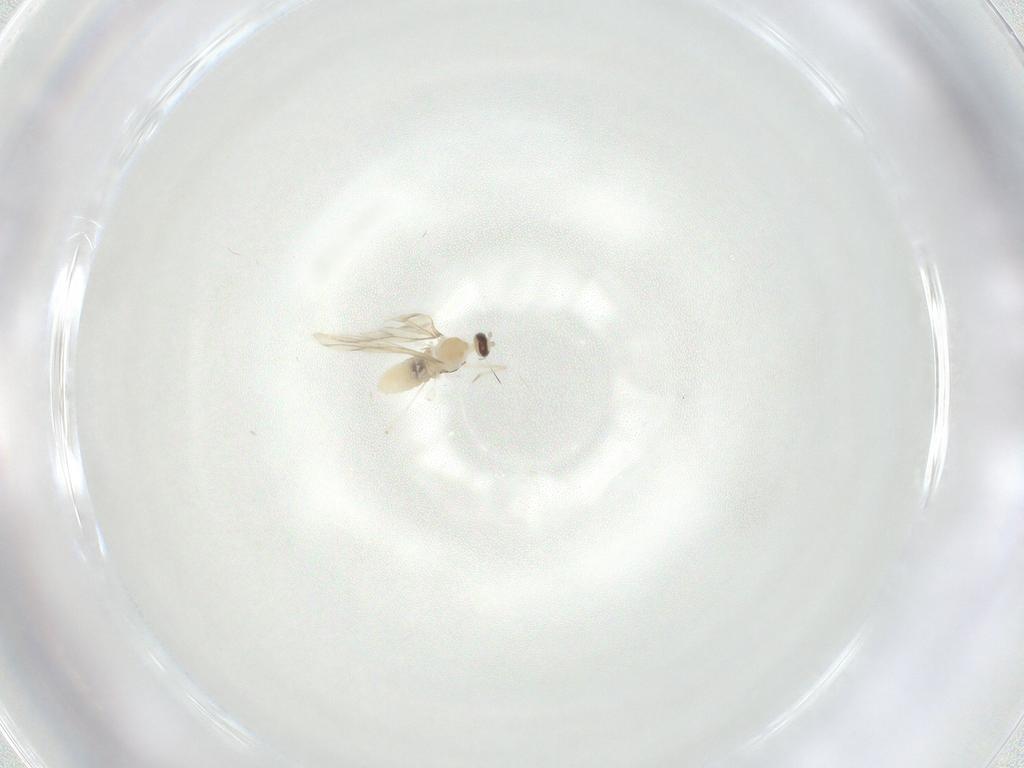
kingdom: Animalia
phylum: Arthropoda
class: Insecta
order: Diptera
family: Chironomidae
